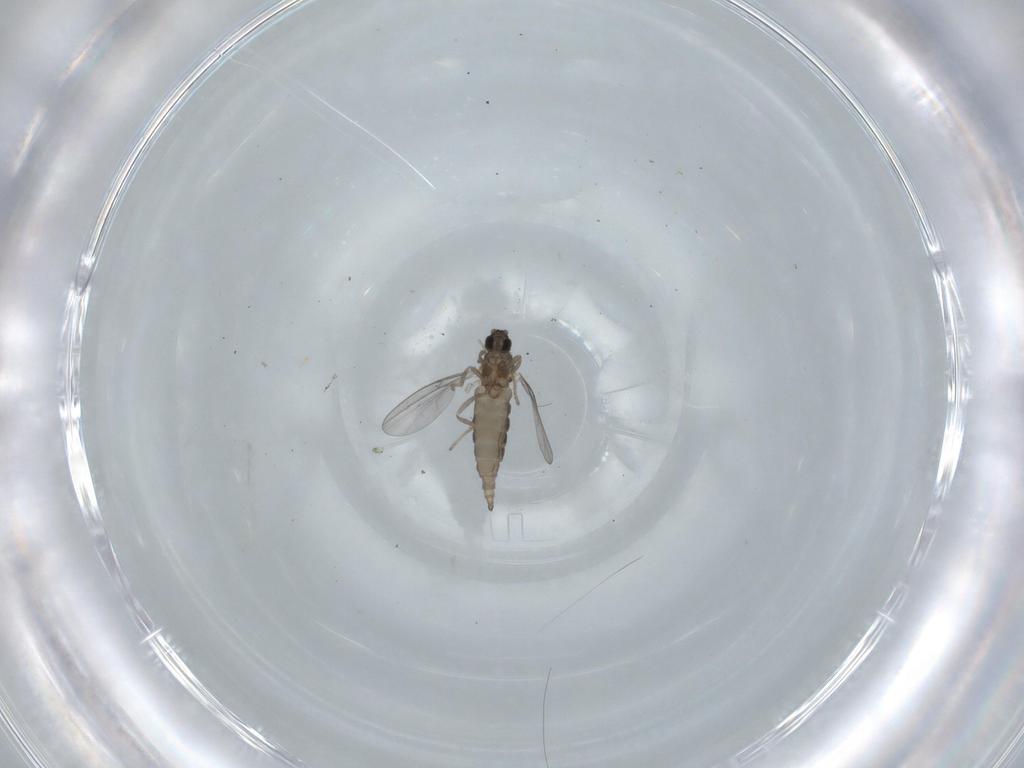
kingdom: Animalia
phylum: Arthropoda
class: Insecta
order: Diptera
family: Cecidomyiidae
